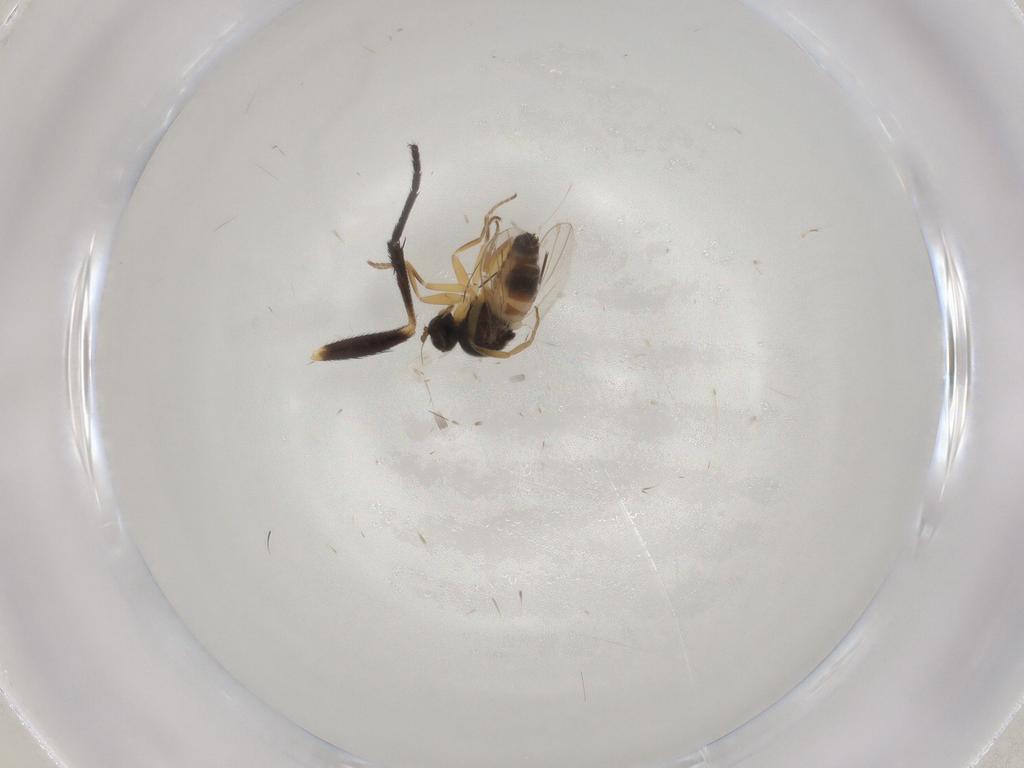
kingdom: Animalia
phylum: Arthropoda
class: Insecta
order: Diptera
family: Hybotidae
